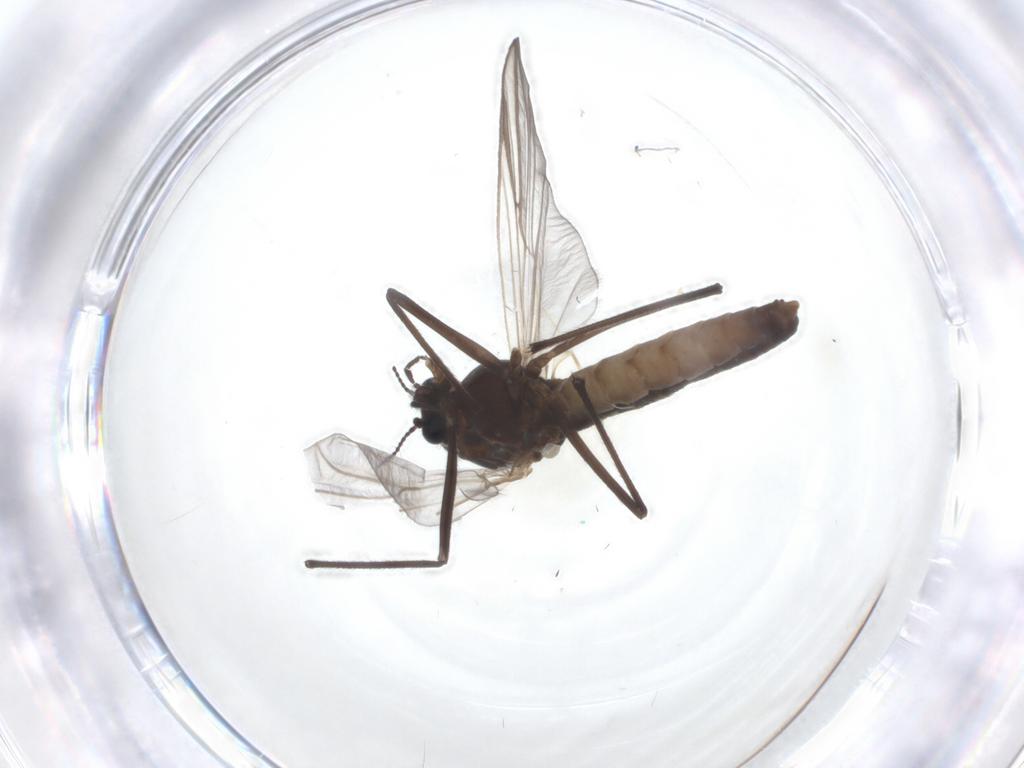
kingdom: Animalia
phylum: Arthropoda
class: Insecta
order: Diptera
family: Chironomidae
